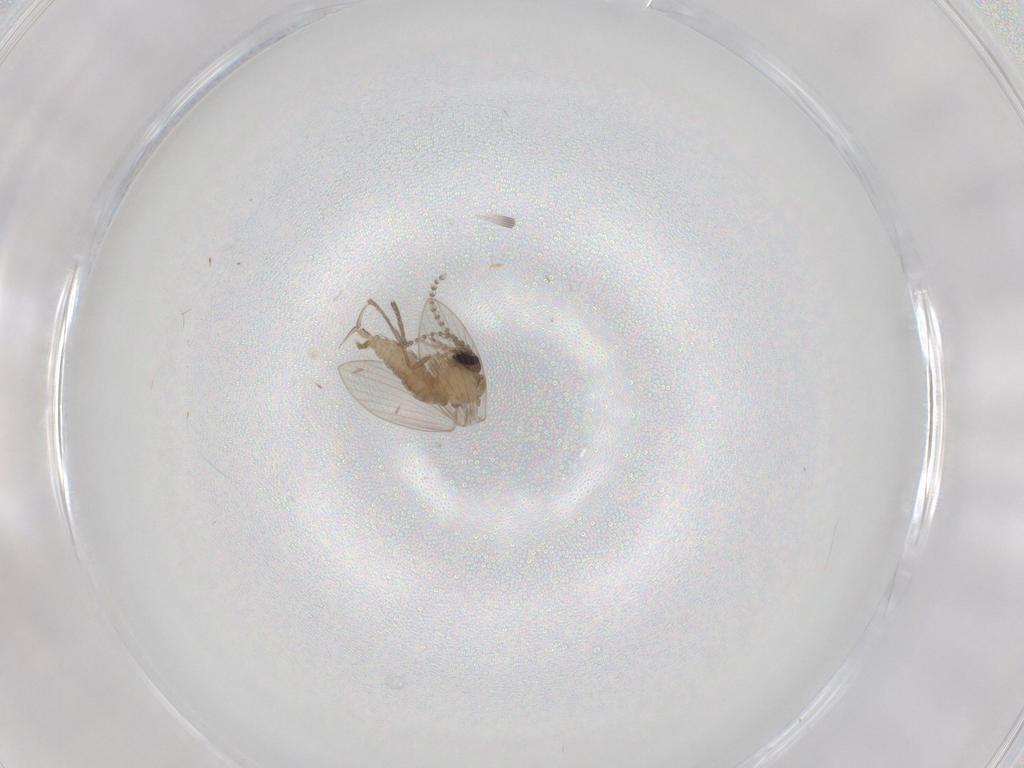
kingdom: Animalia
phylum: Arthropoda
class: Insecta
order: Diptera
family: Psychodidae
